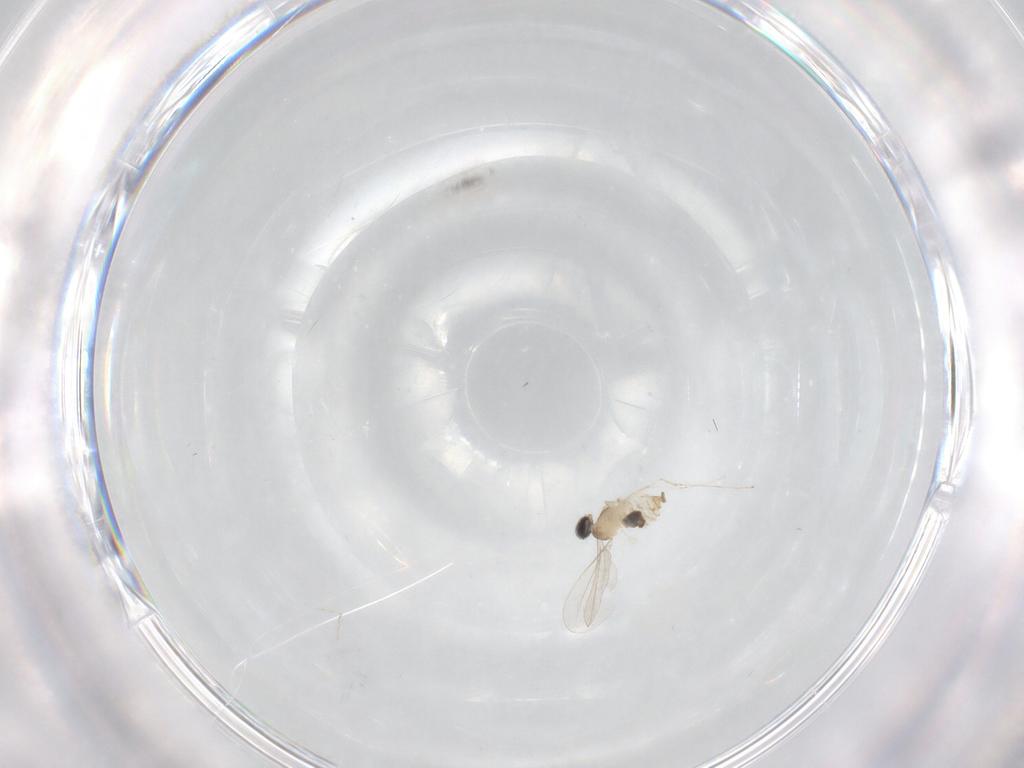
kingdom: Animalia
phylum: Arthropoda
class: Insecta
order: Diptera
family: Cecidomyiidae
